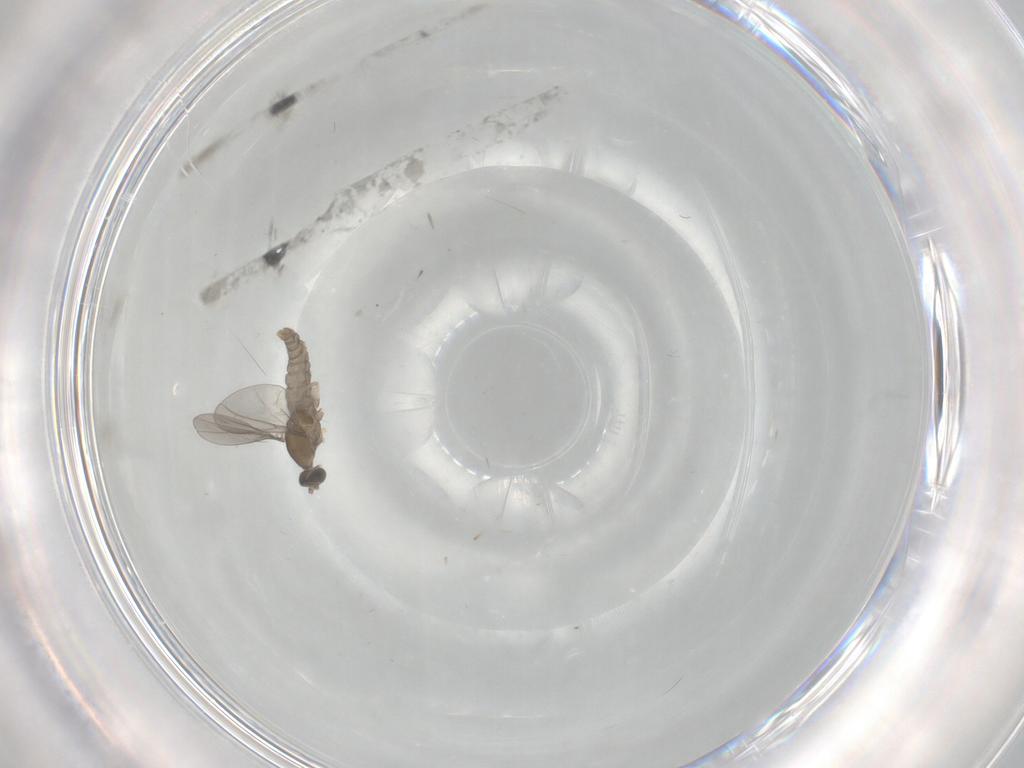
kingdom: Animalia
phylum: Arthropoda
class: Insecta
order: Diptera
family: Cecidomyiidae
